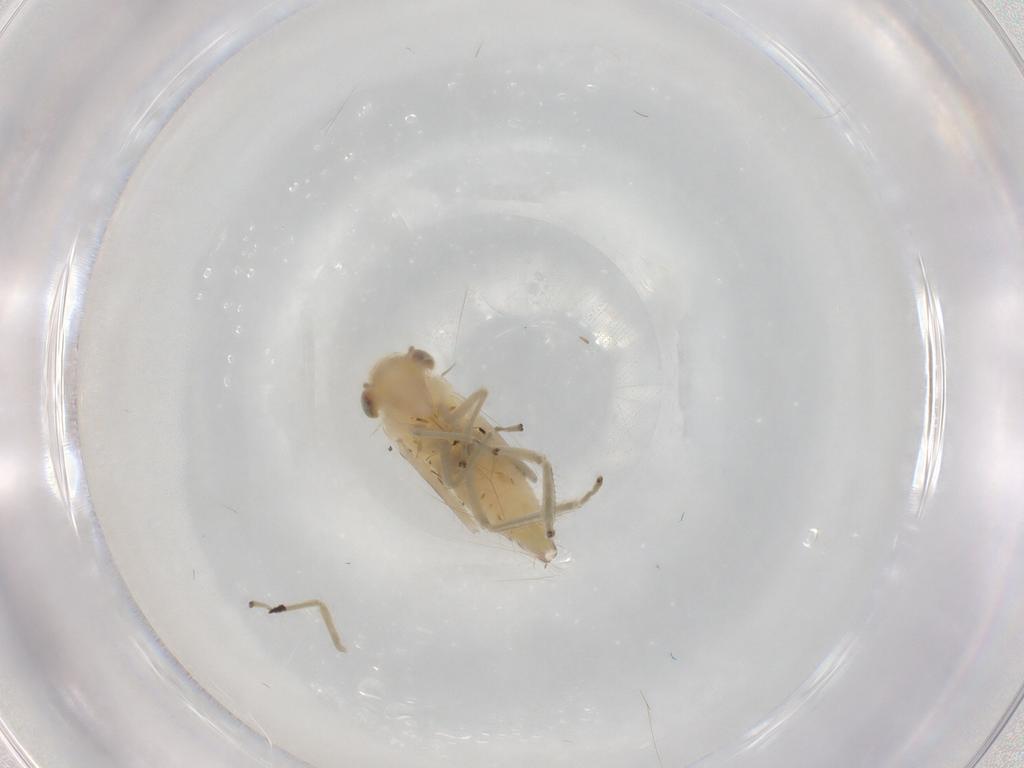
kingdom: Animalia
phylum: Arthropoda
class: Insecta
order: Hemiptera
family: Cicadellidae
